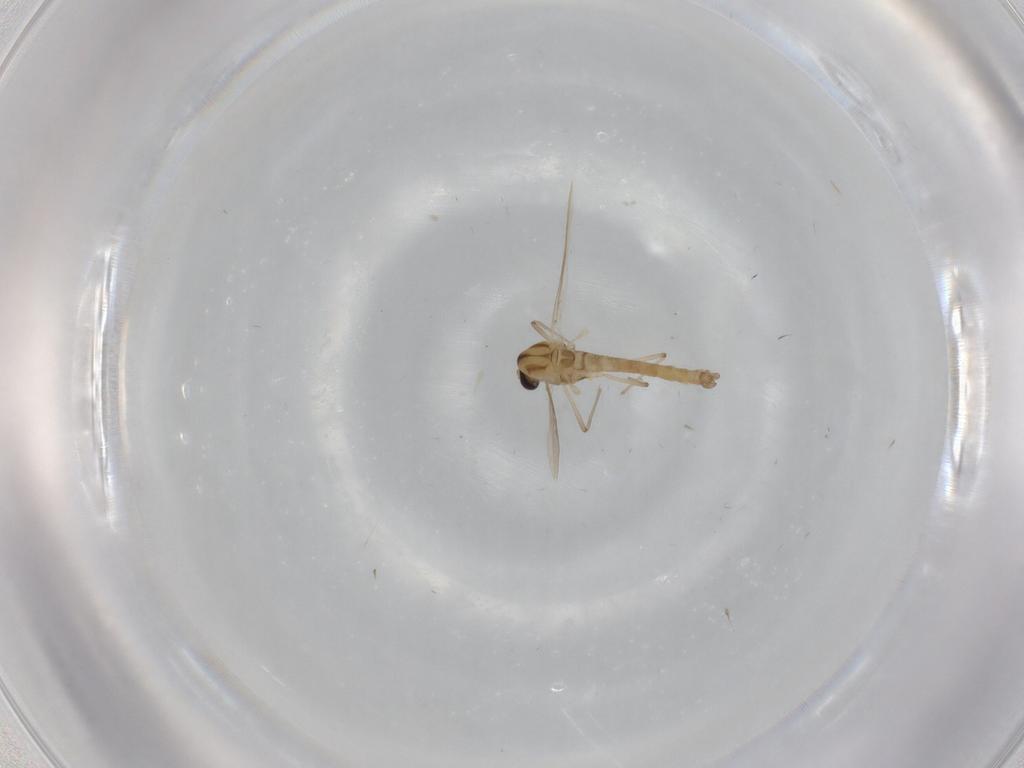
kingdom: Animalia
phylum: Arthropoda
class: Insecta
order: Diptera
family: Chironomidae
